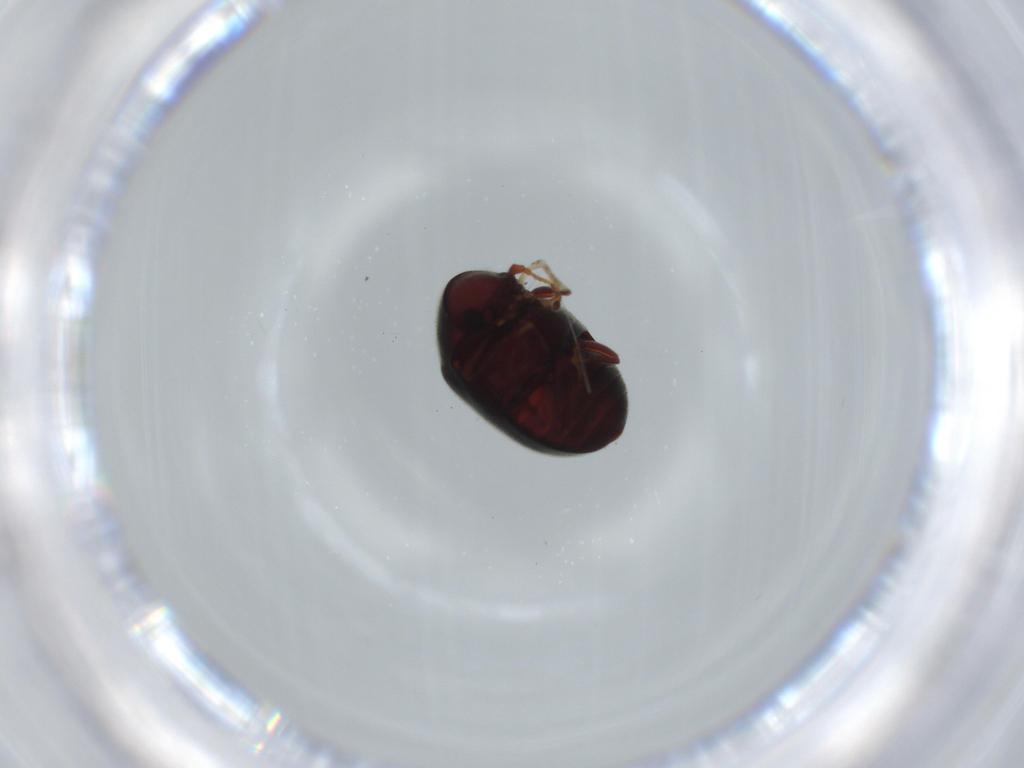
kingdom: Animalia
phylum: Arthropoda
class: Insecta
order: Coleoptera
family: Ptinidae
